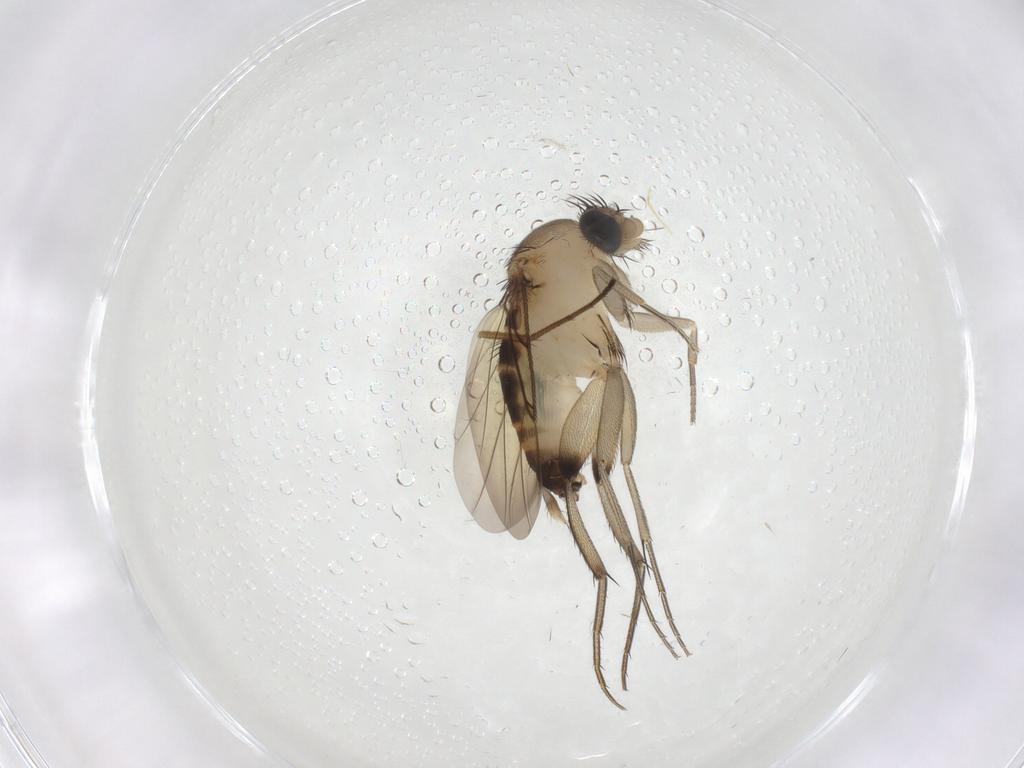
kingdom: Animalia
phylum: Arthropoda
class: Insecta
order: Diptera
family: Phoridae
